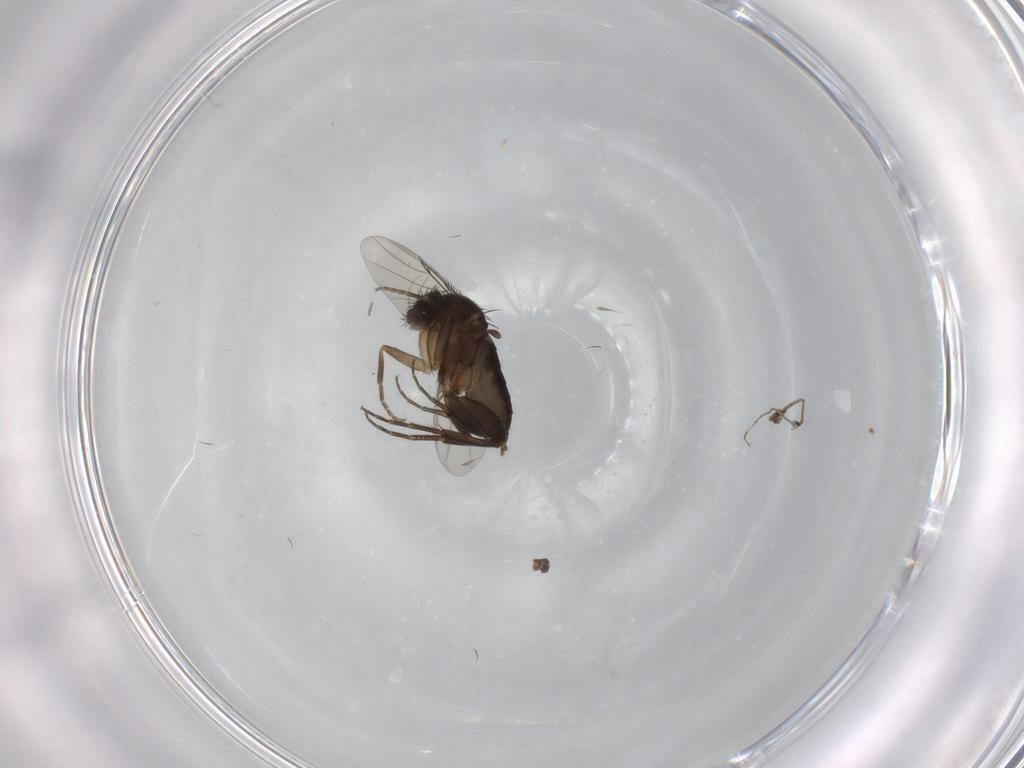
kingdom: Animalia
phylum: Arthropoda
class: Insecta
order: Diptera
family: Phoridae
